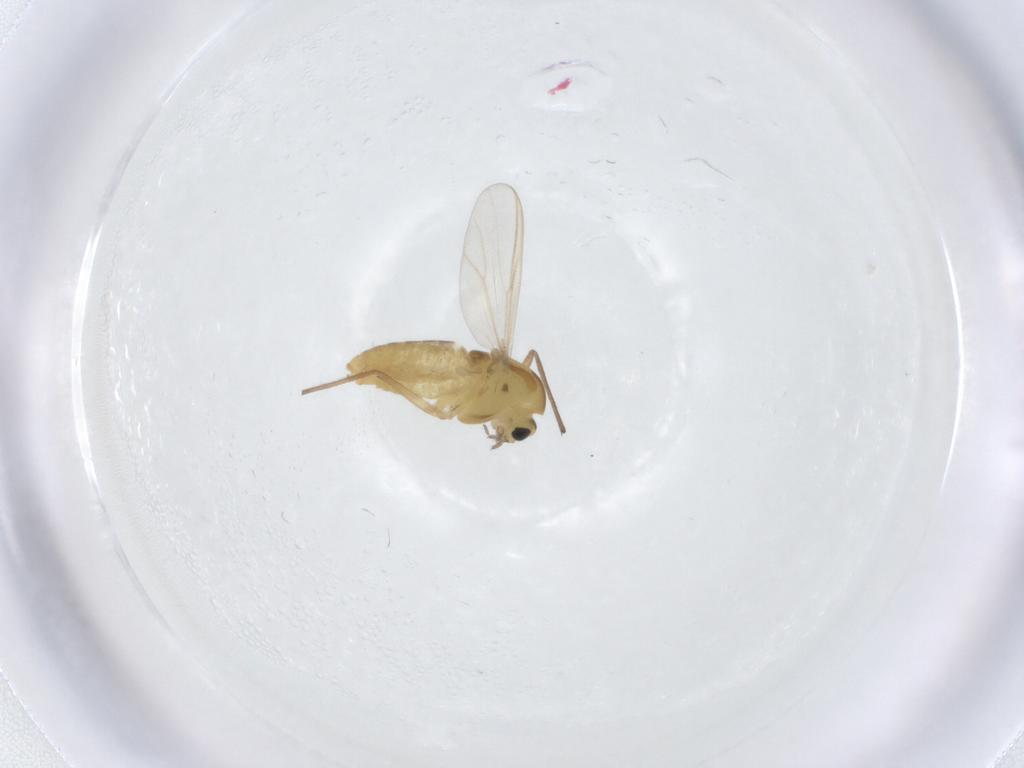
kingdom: Animalia
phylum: Arthropoda
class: Insecta
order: Diptera
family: Chironomidae
